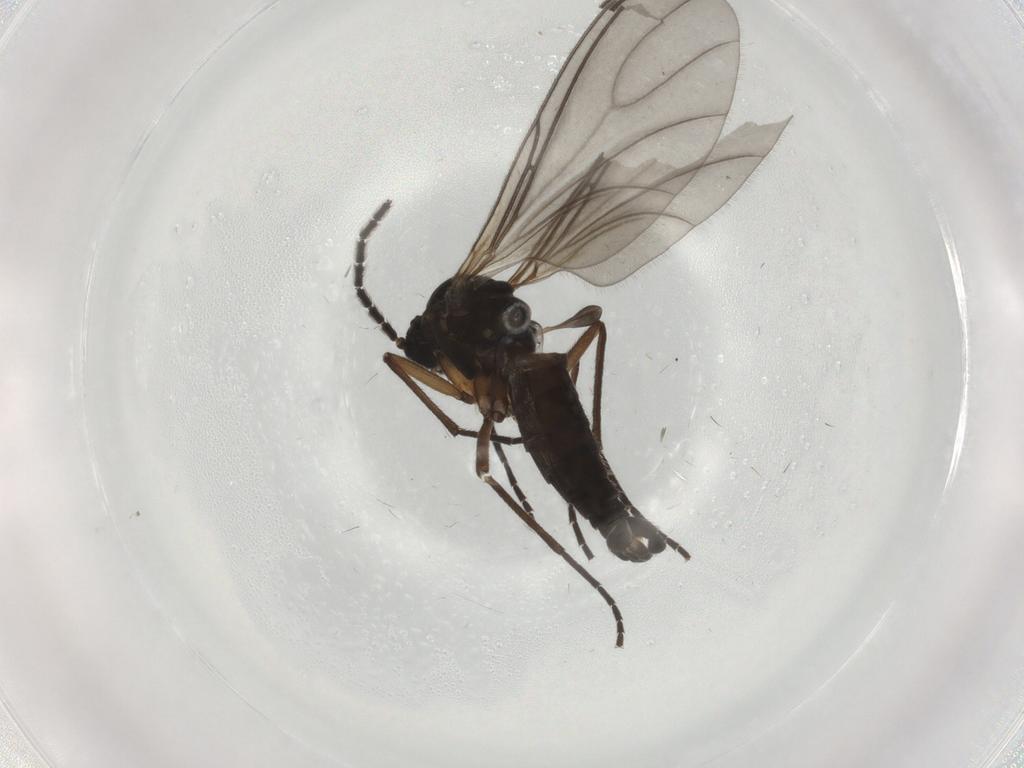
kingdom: Animalia
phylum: Arthropoda
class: Insecta
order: Diptera
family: Sciaridae
